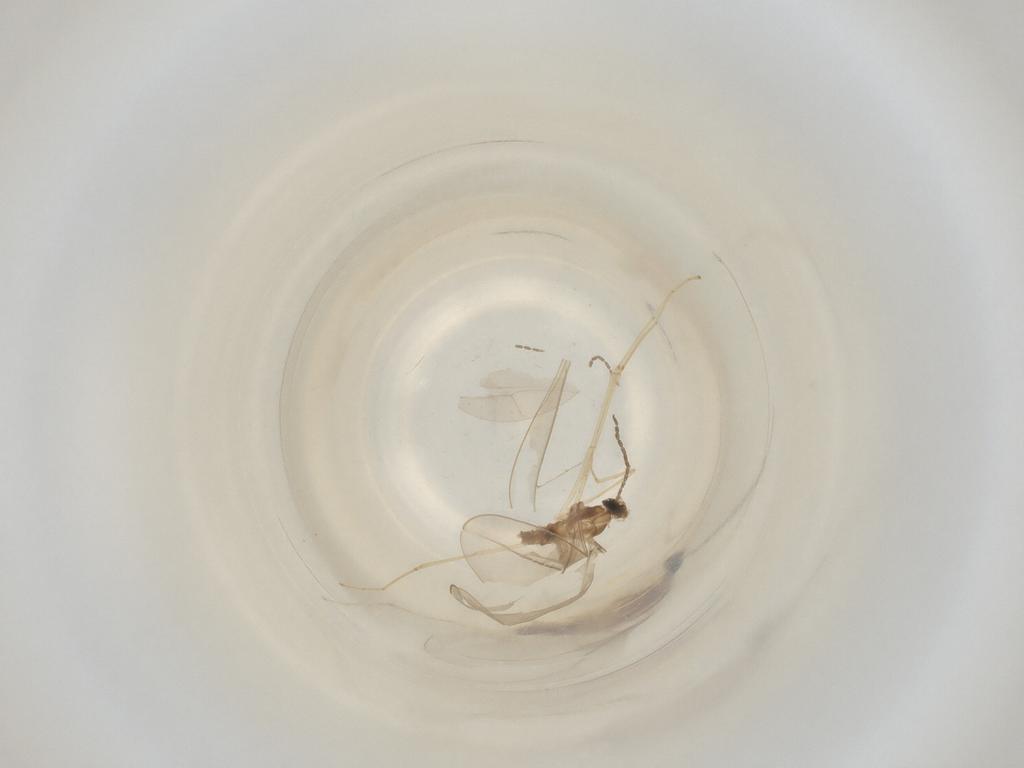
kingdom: Animalia
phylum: Arthropoda
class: Insecta
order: Diptera
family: Cecidomyiidae
